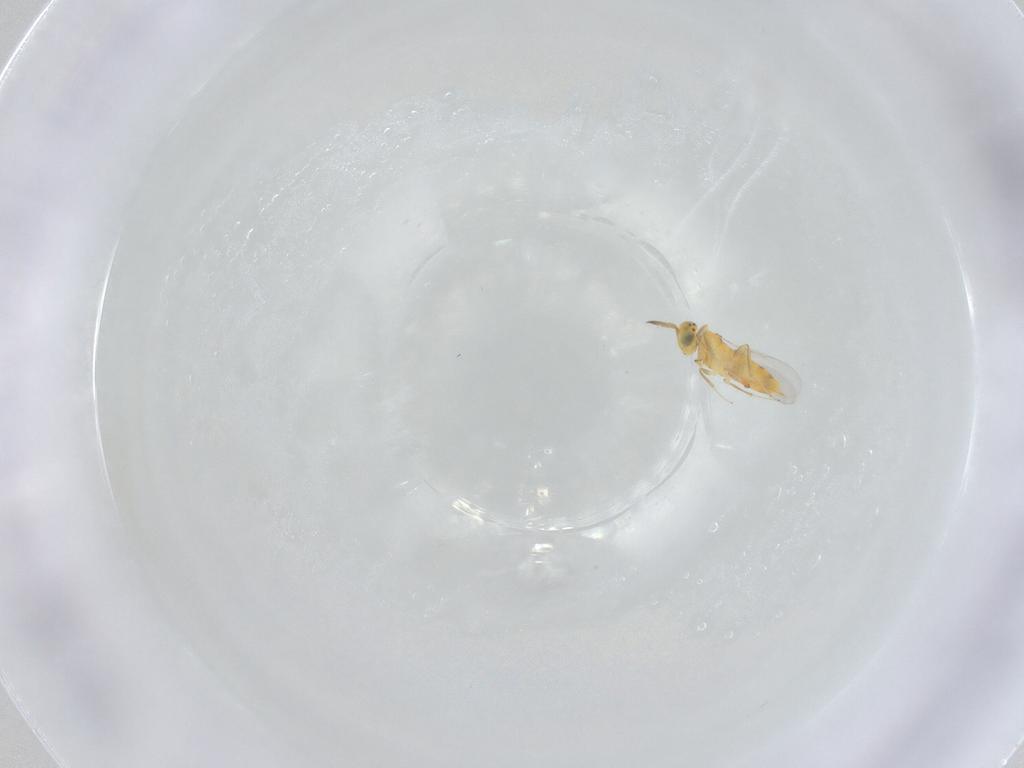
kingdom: Animalia
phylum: Arthropoda
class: Insecta
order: Hymenoptera
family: Aphelinidae
